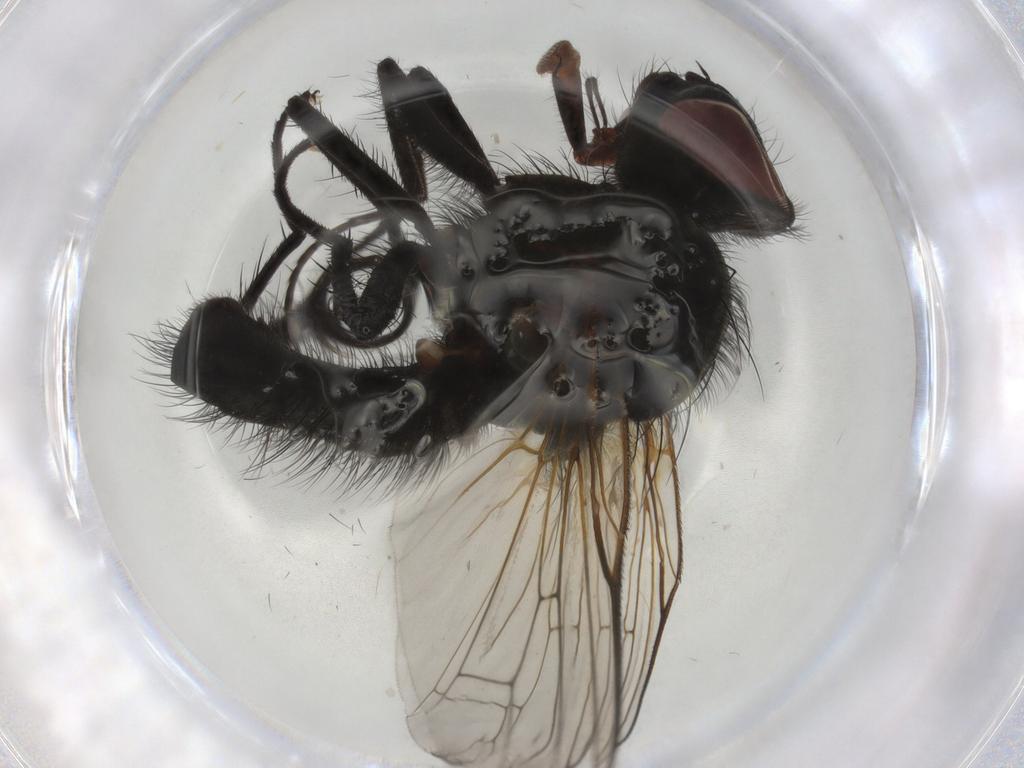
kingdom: Animalia
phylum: Arthropoda
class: Insecta
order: Diptera
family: Anthomyiidae
